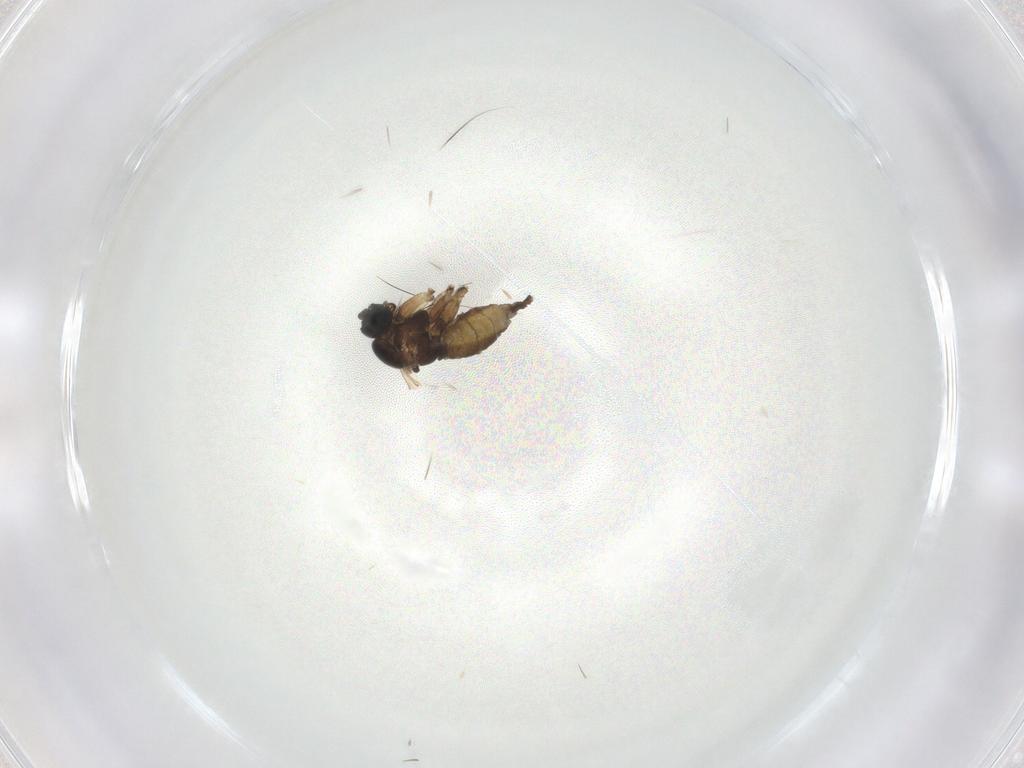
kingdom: Animalia
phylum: Arthropoda
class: Insecta
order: Diptera
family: Sciaridae
